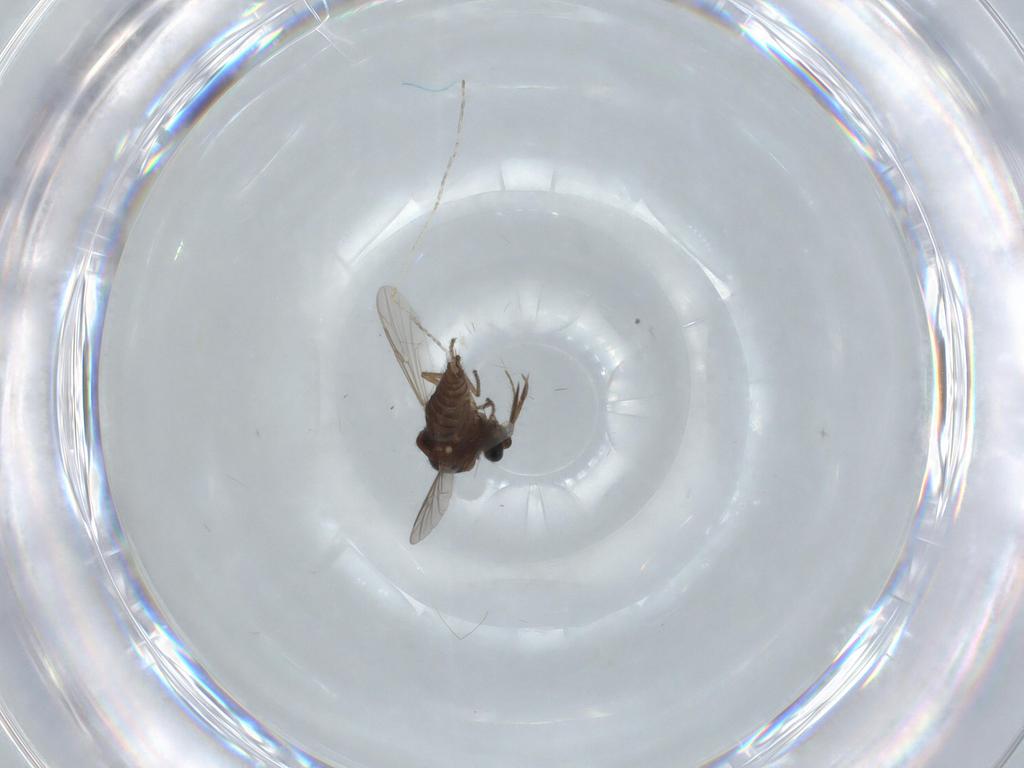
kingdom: Animalia
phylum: Arthropoda
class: Insecta
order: Diptera
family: Cecidomyiidae
